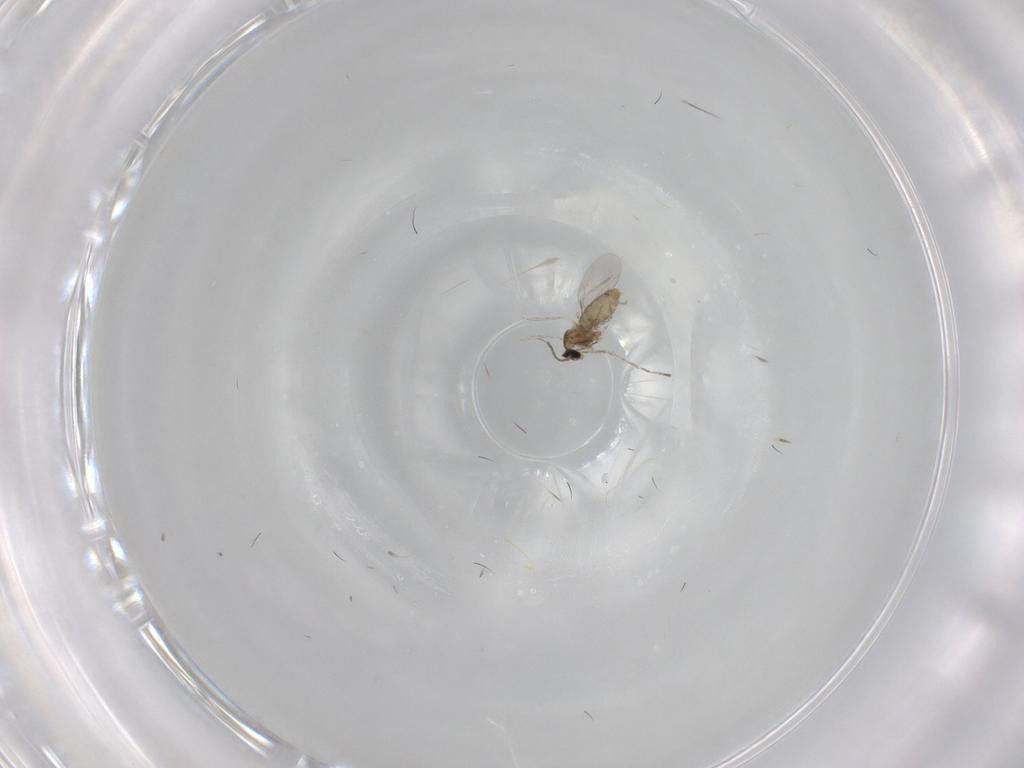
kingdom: Animalia
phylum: Arthropoda
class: Insecta
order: Diptera
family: Cecidomyiidae
